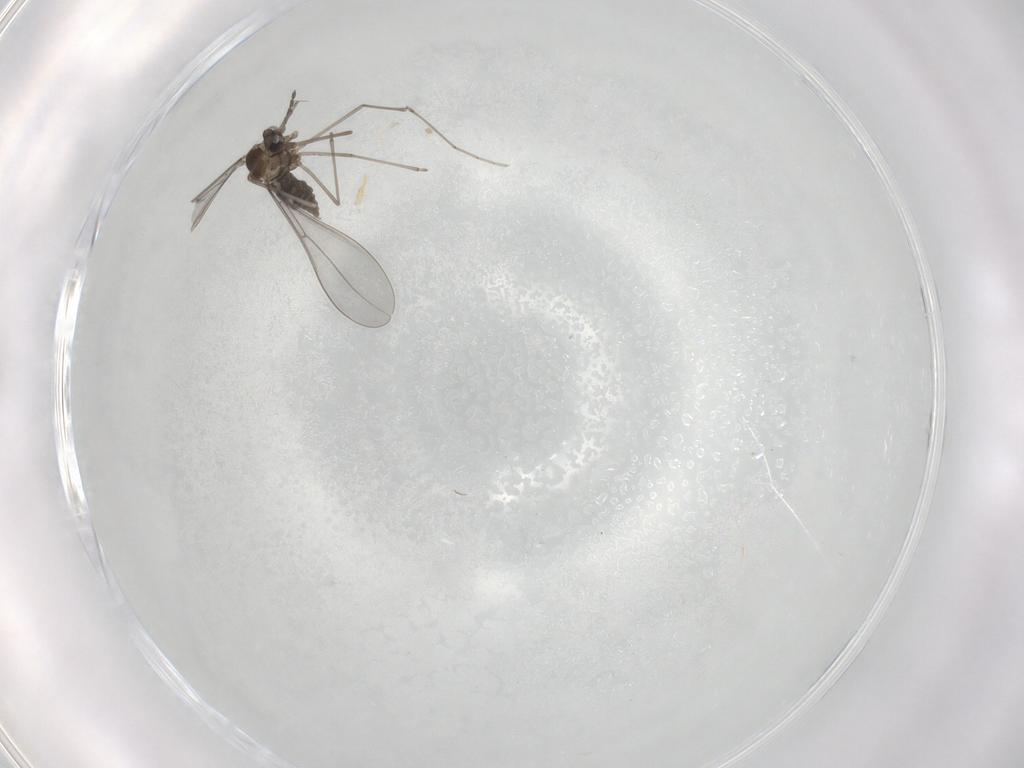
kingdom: Animalia
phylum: Arthropoda
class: Insecta
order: Diptera
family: Cecidomyiidae
